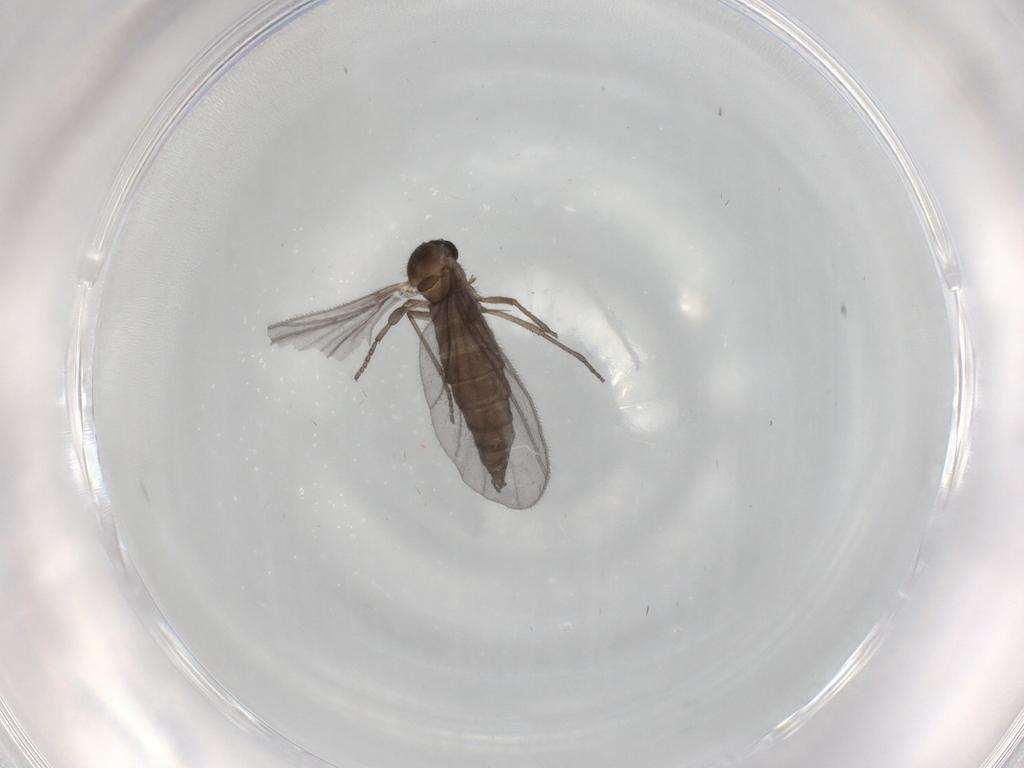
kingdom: Animalia
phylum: Arthropoda
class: Insecta
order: Diptera
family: Sciaridae
